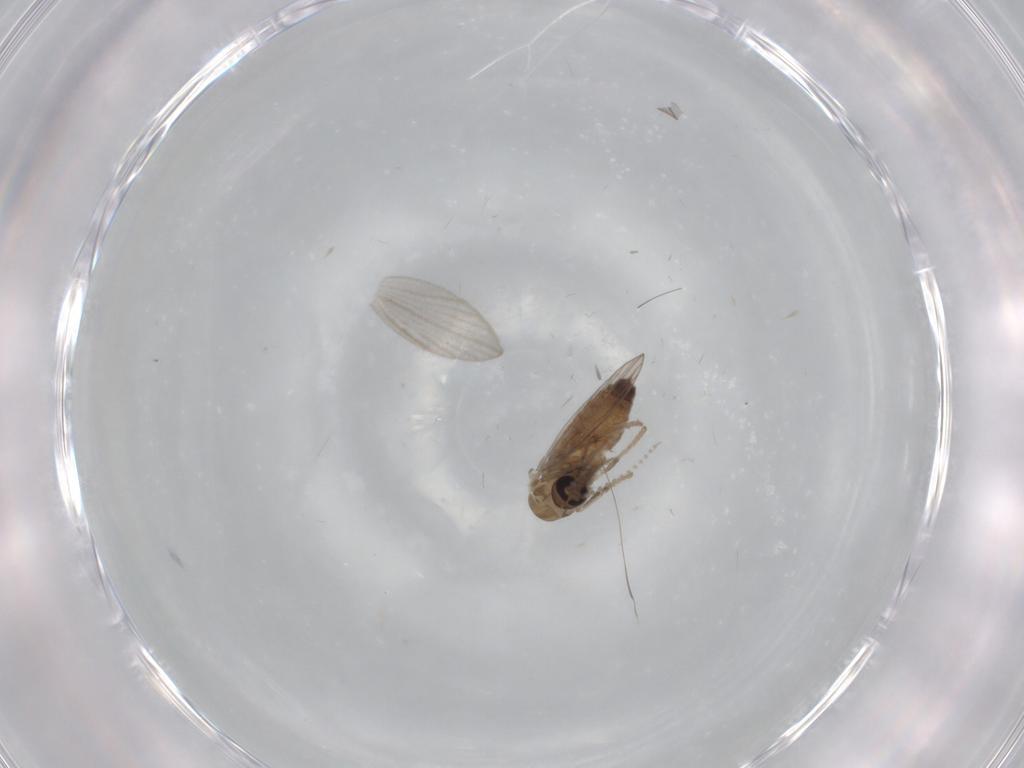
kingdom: Animalia
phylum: Arthropoda
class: Insecta
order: Diptera
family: Psychodidae
